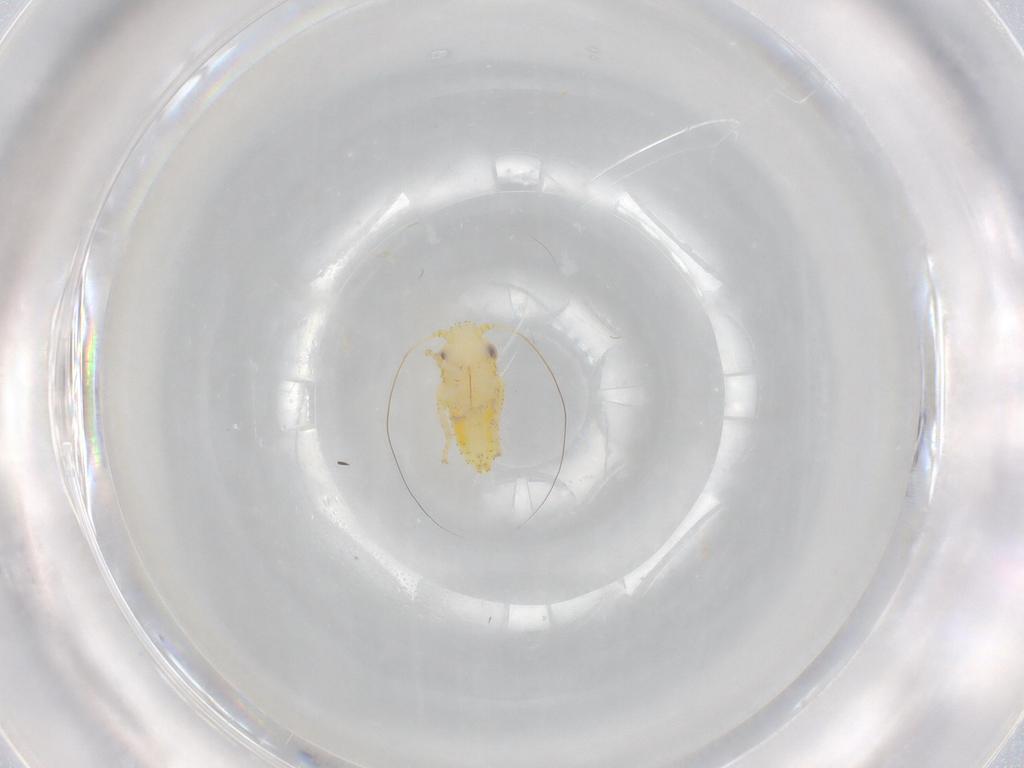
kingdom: Animalia
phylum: Arthropoda
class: Insecta
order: Hemiptera
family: Cicadellidae
